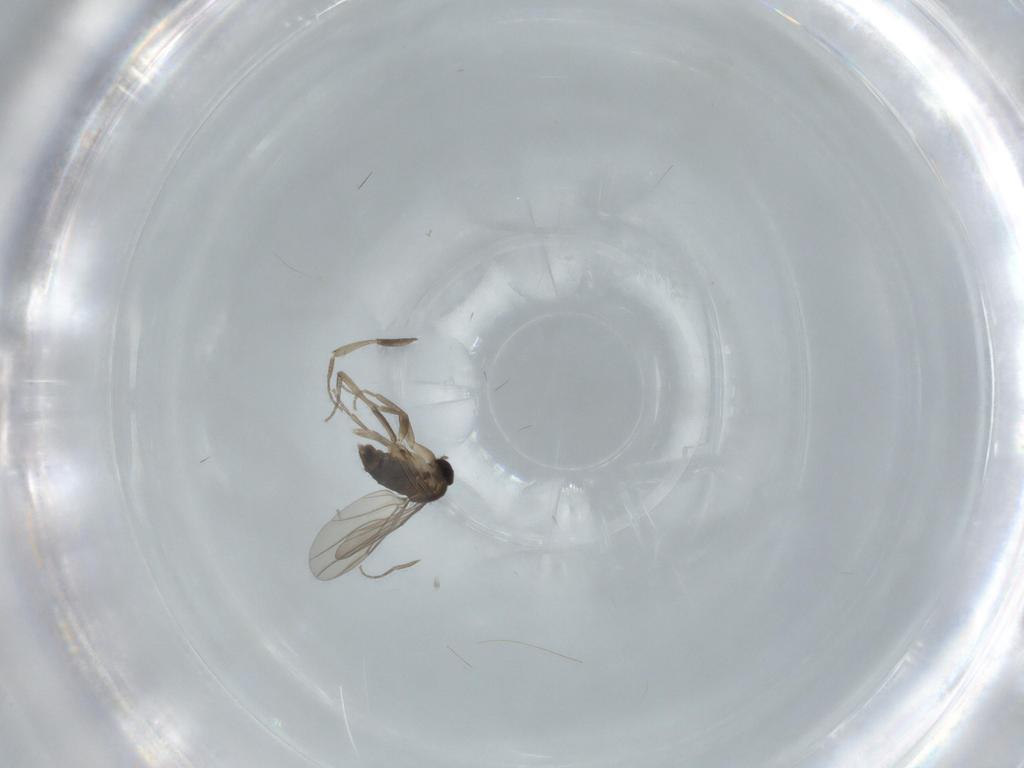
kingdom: Animalia
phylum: Arthropoda
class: Insecta
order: Diptera
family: Phoridae
